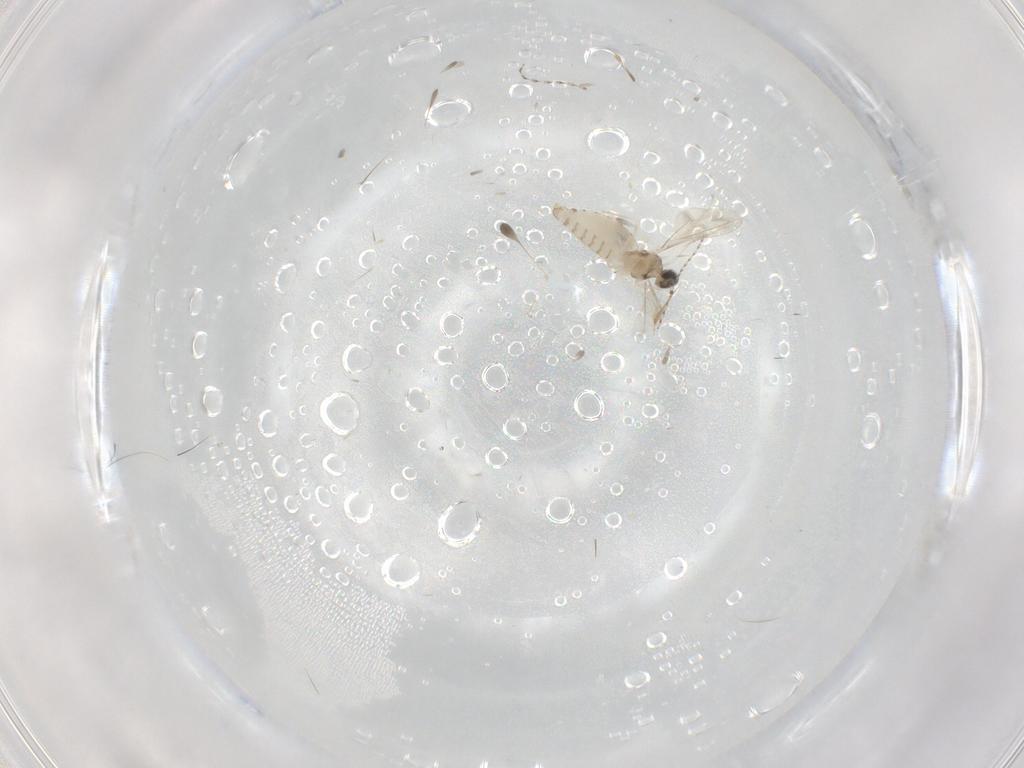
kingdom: Animalia
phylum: Arthropoda
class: Insecta
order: Diptera
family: Cecidomyiidae
